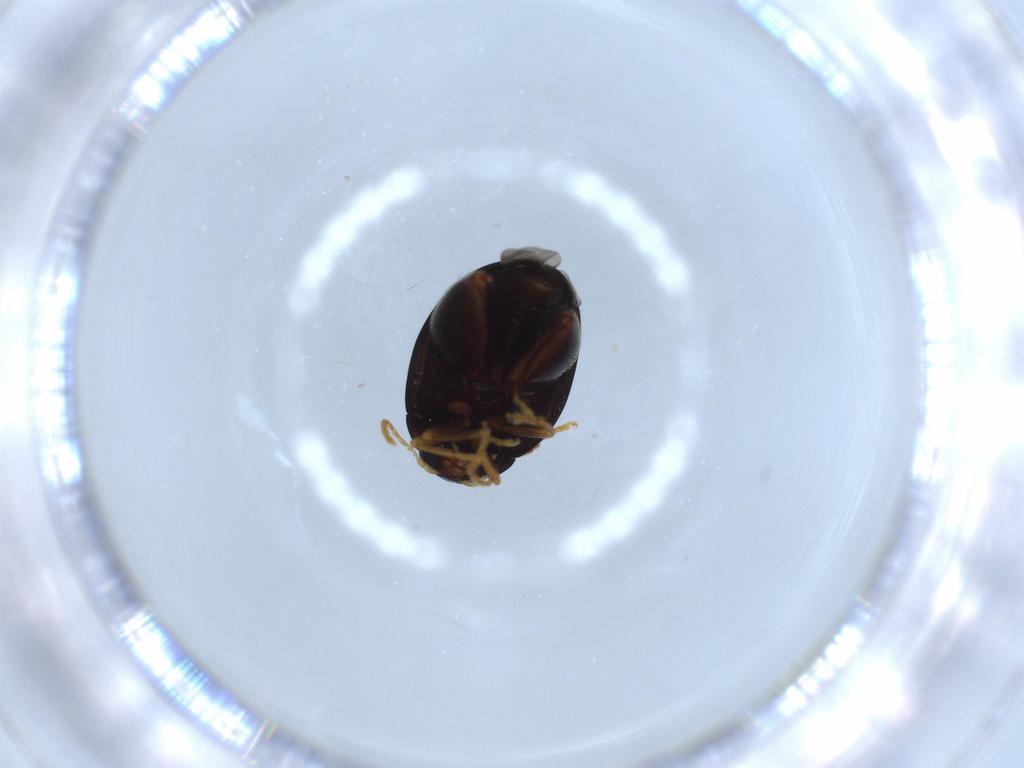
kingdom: Animalia
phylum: Arthropoda
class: Insecta
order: Coleoptera
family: Chrysomelidae
